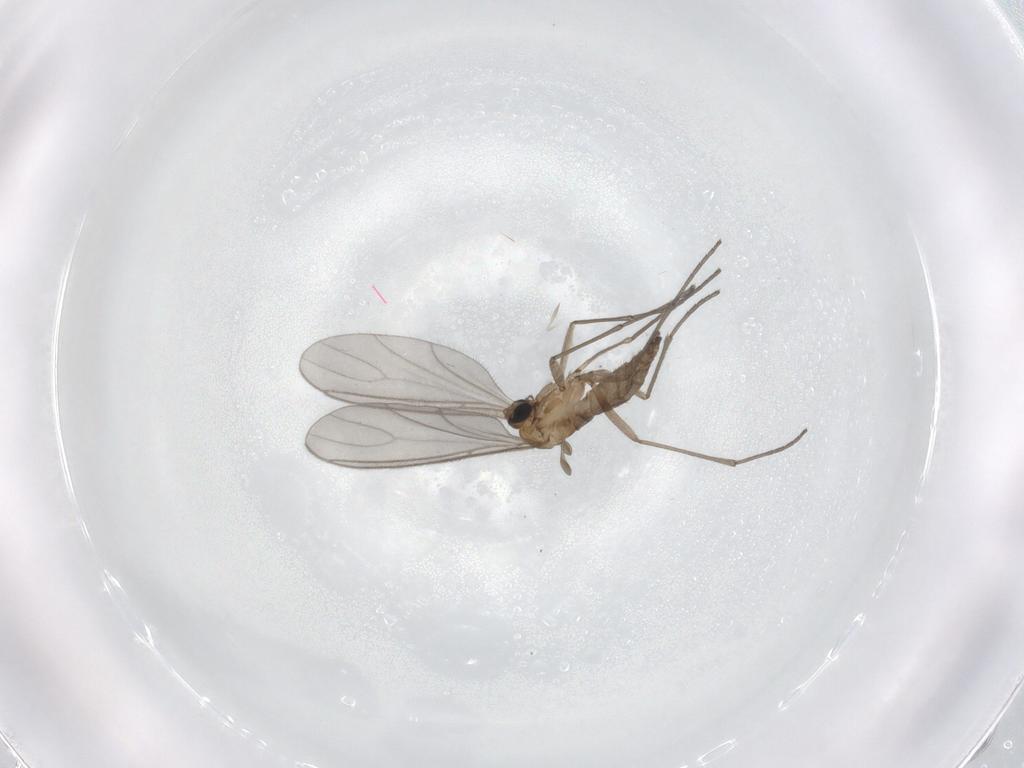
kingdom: Animalia
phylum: Arthropoda
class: Insecta
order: Diptera
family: Sciaridae
